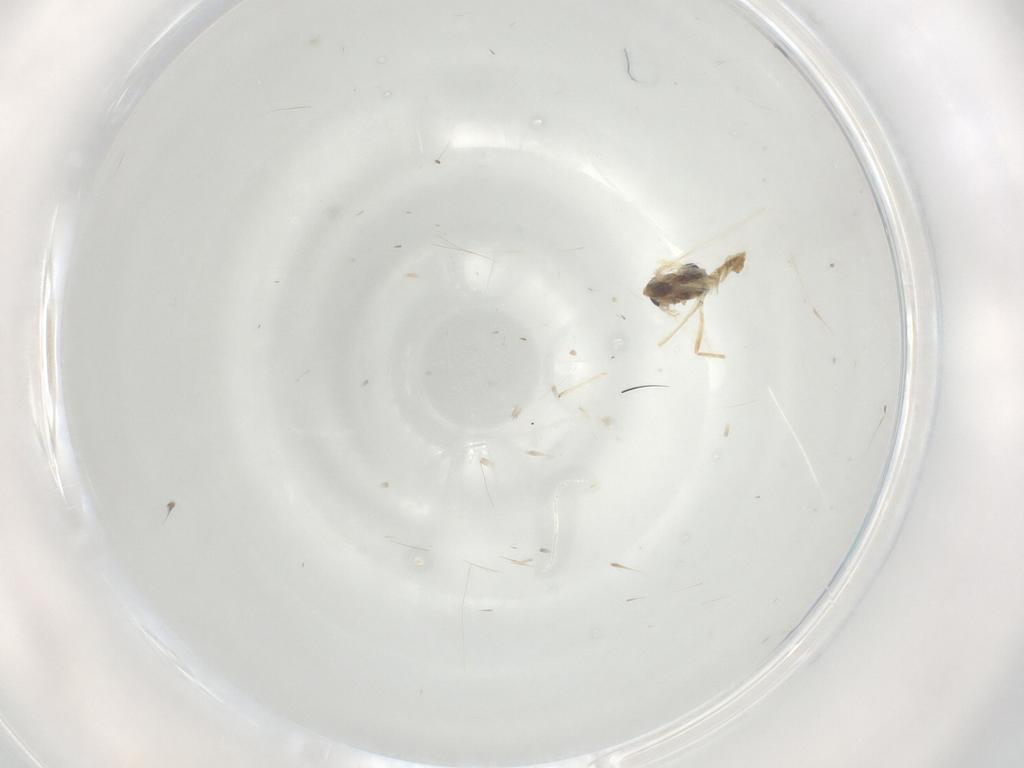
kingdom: Animalia
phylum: Arthropoda
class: Insecta
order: Diptera
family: Chironomidae
